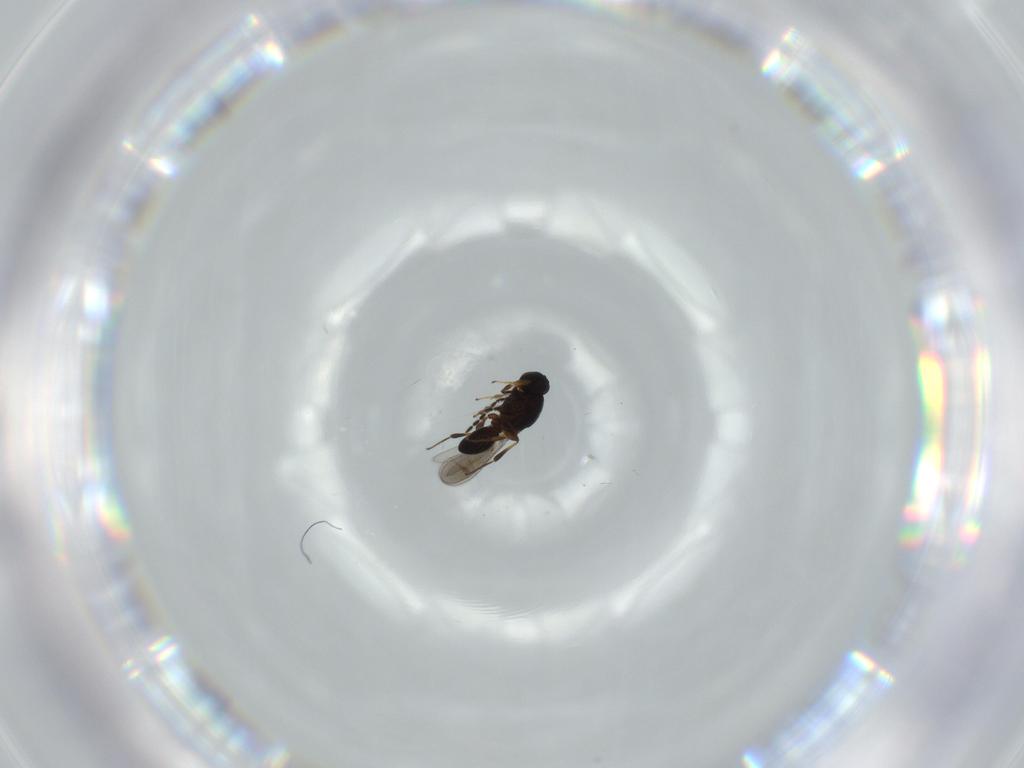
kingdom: Animalia
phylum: Arthropoda
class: Insecta
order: Hymenoptera
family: Platygastridae
